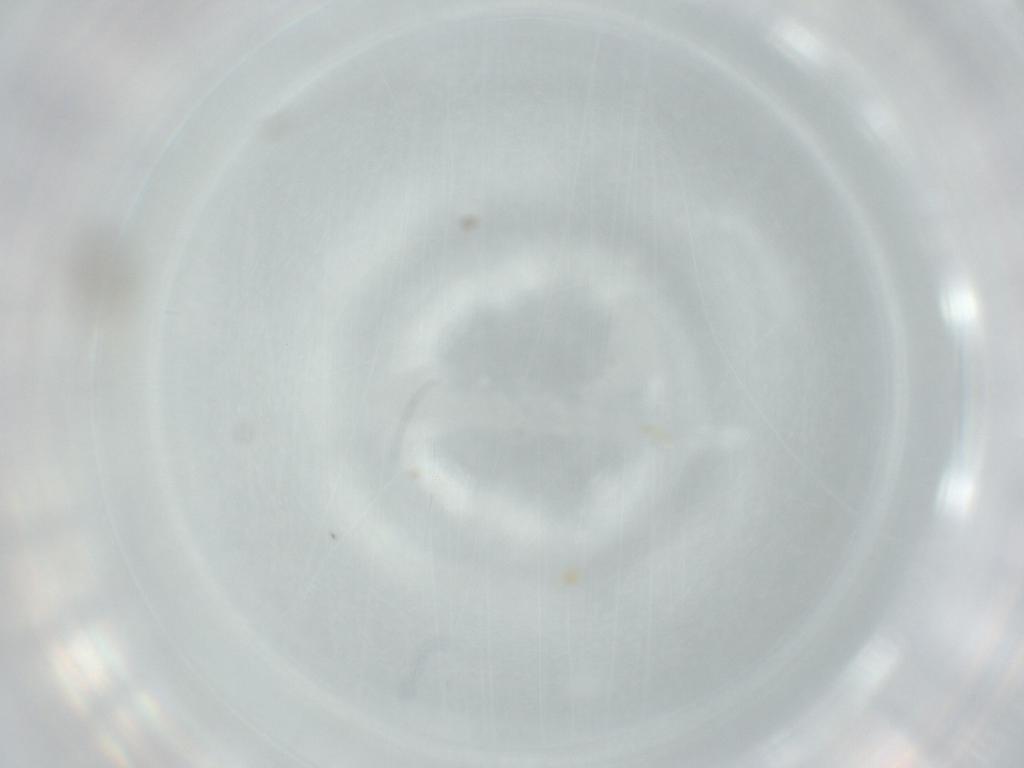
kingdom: Animalia
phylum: Arthropoda
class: Insecta
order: Diptera
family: Cecidomyiidae
